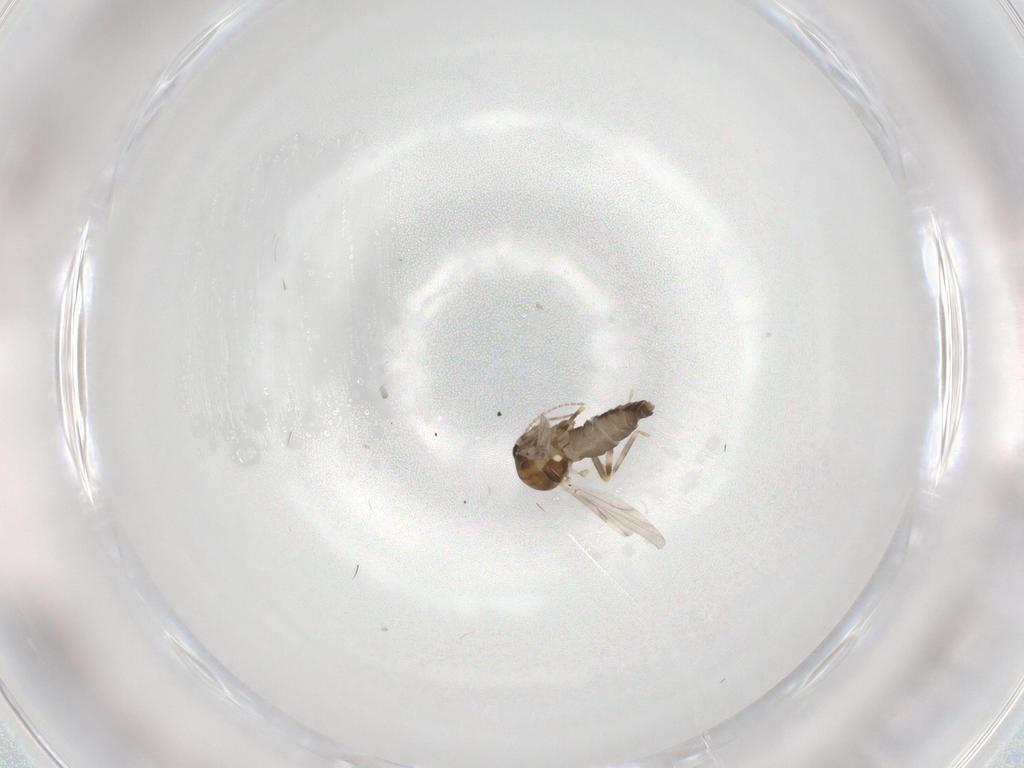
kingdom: Animalia
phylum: Arthropoda
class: Insecta
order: Diptera
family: Ceratopogonidae
